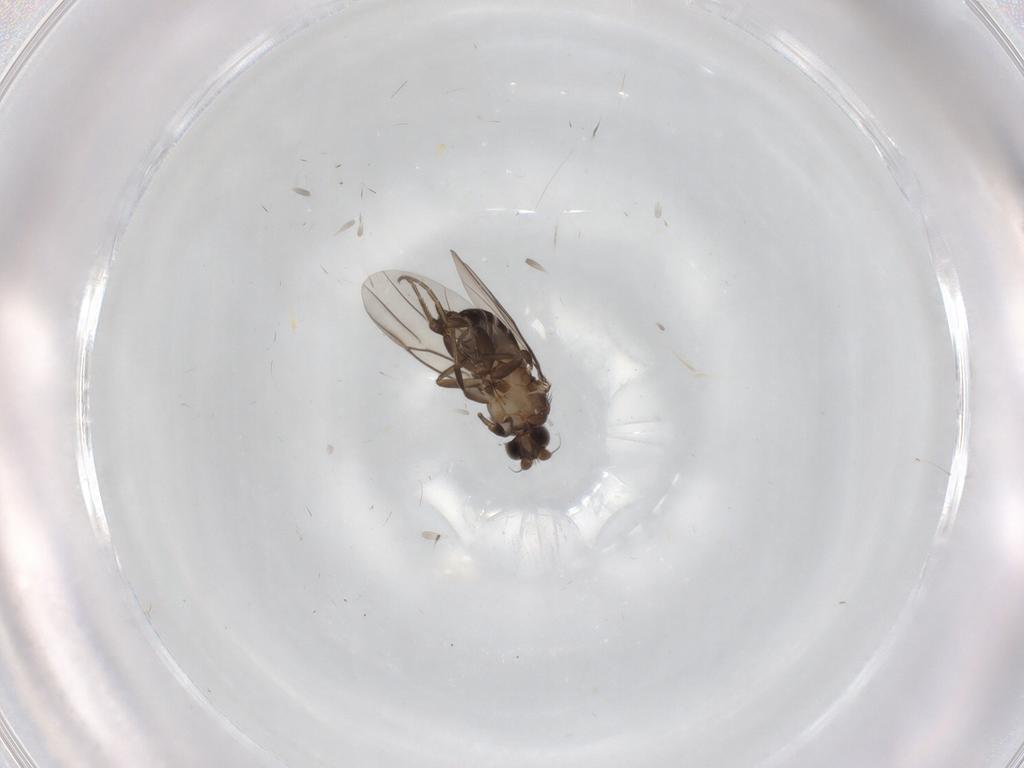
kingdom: Animalia
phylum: Arthropoda
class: Insecta
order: Diptera
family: Phoridae
